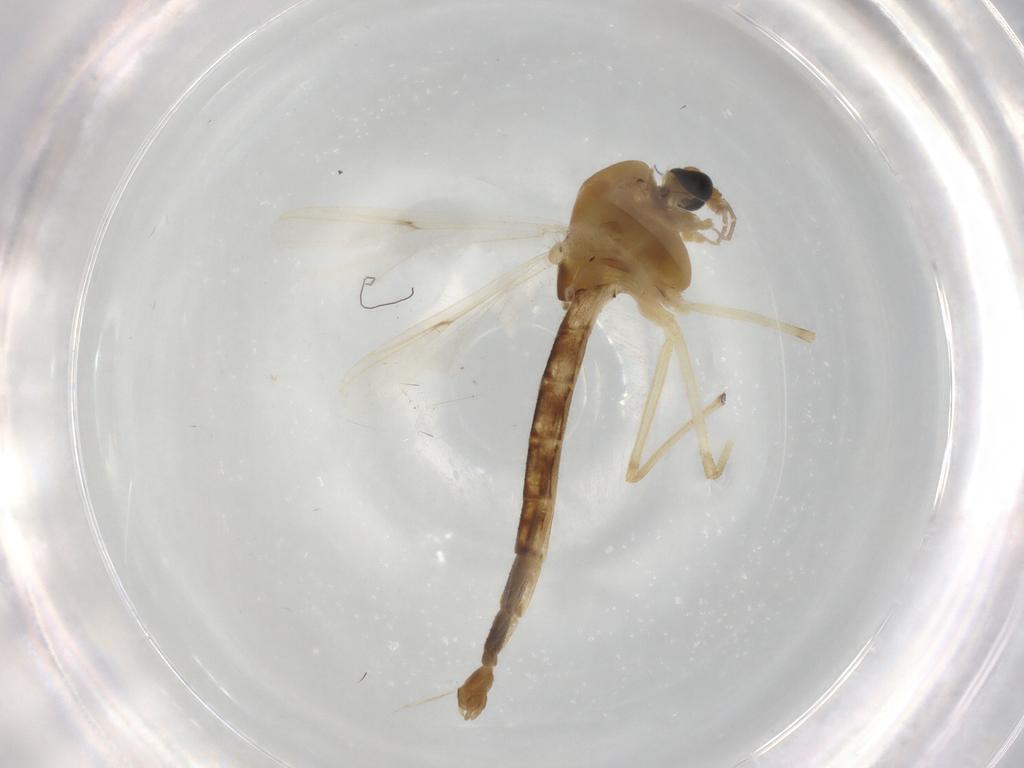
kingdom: Animalia
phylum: Arthropoda
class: Insecta
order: Diptera
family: Chironomidae
